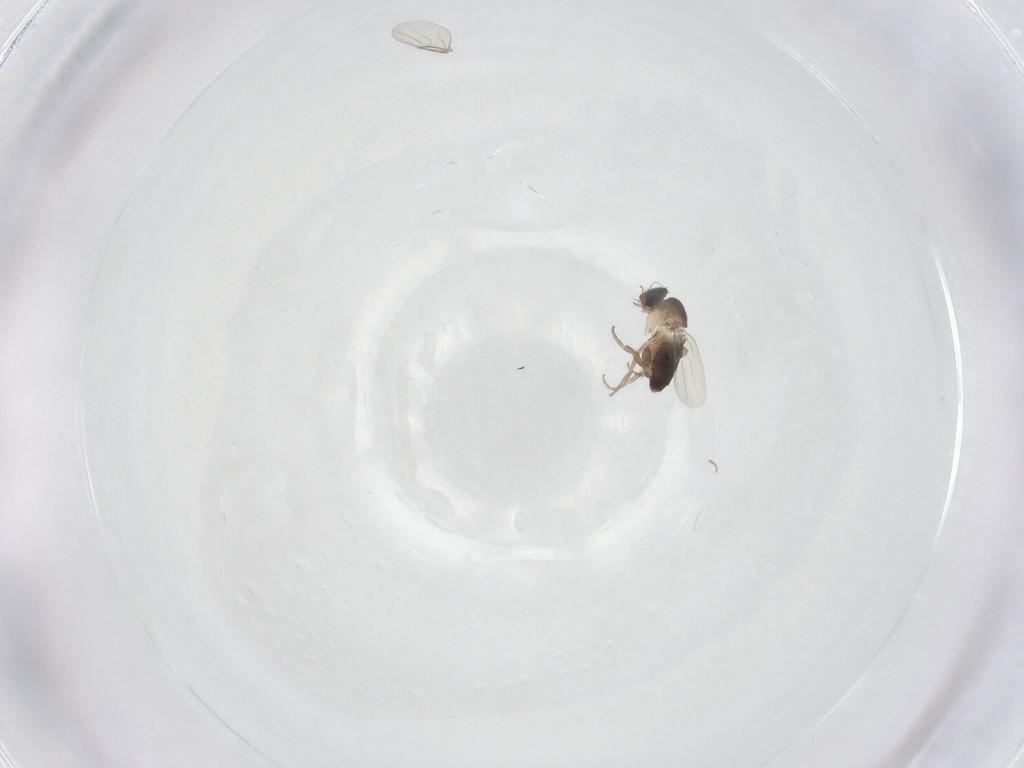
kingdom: Animalia
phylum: Arthropoda
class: Insecta
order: Diptera
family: Phoridae
